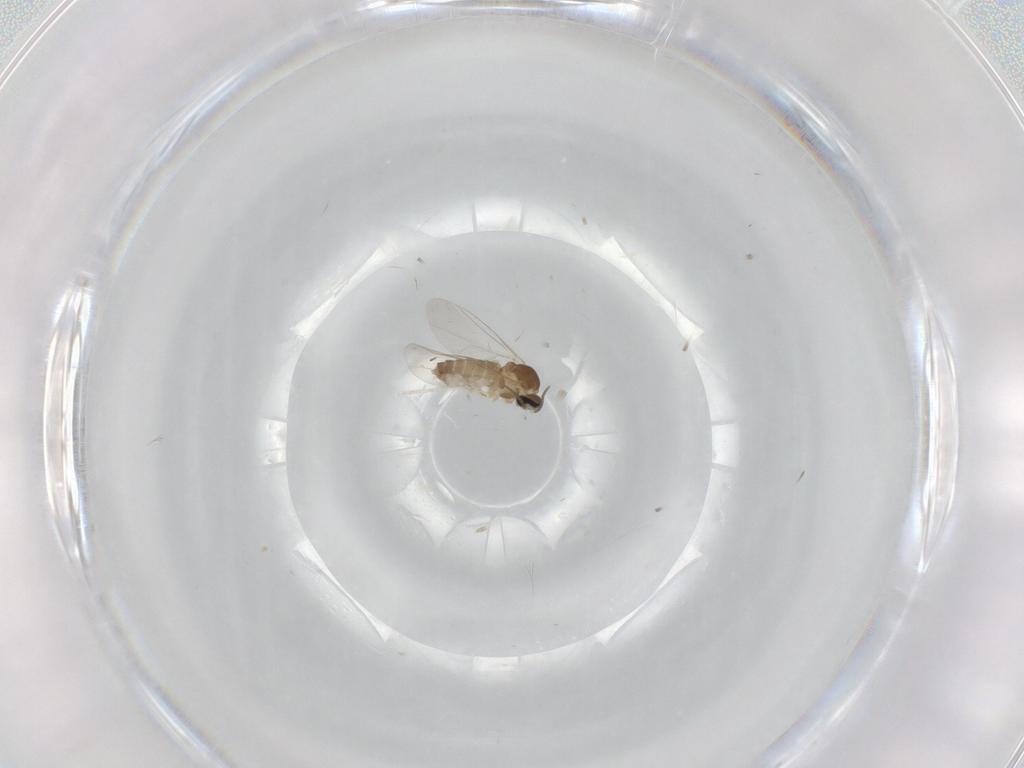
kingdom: Animalia
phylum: Arthropoda
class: Insecta
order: Diptera
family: Cecidomyiidae
